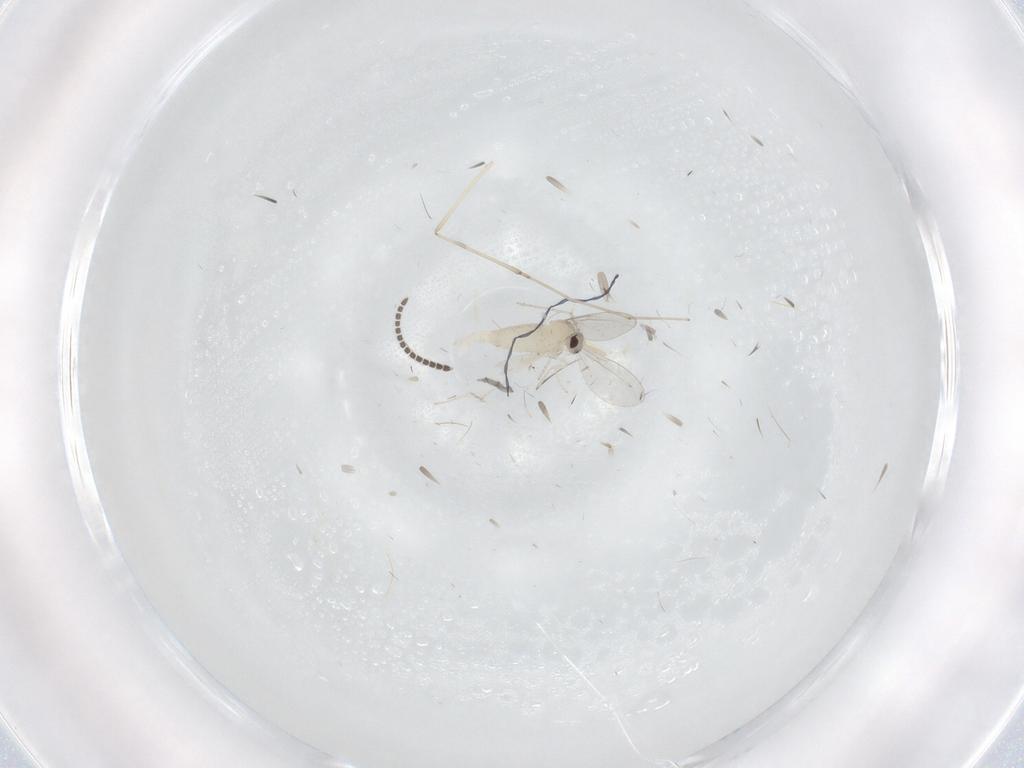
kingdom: Animalia
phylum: Arthropoda
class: Insecta
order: Diptera
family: Cecidomyiidae
